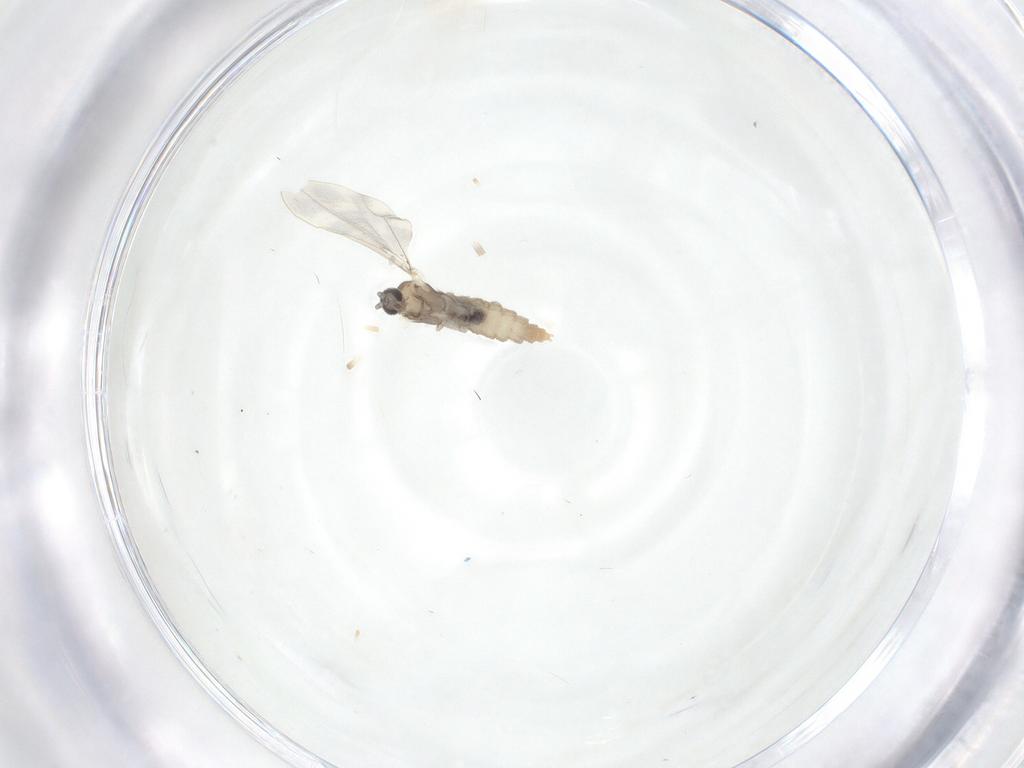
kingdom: Animalia
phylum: Arthropoda
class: Insecta
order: Diptera
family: Cecidomyiidae
